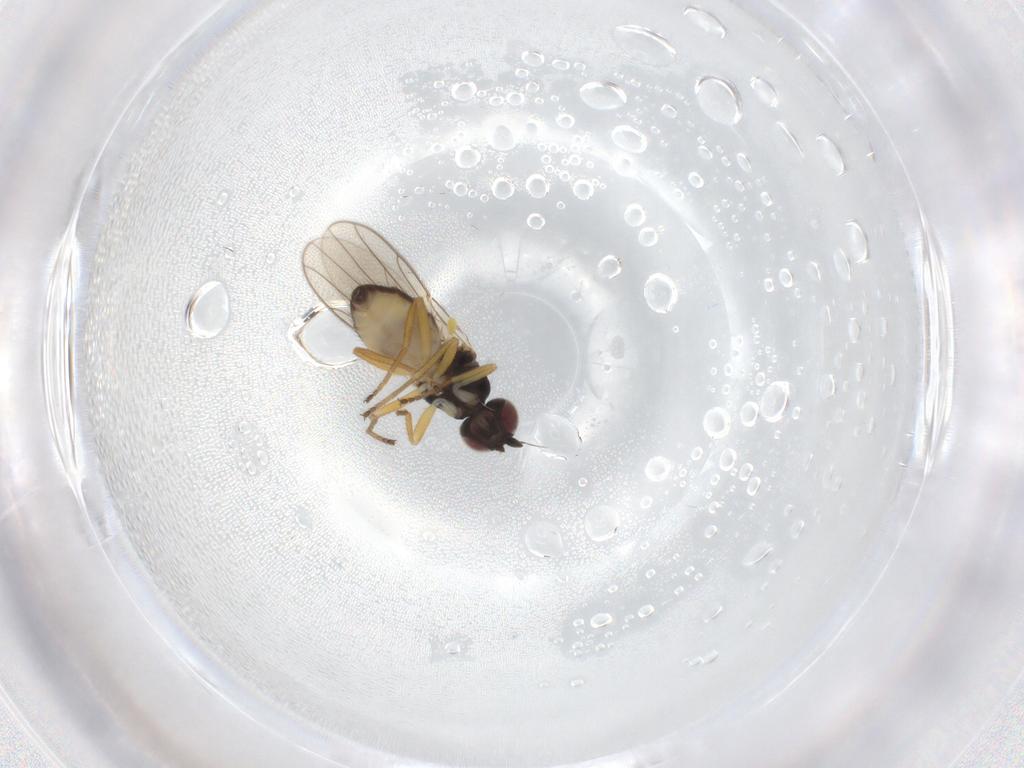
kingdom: Animalia
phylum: Arthropoda
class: Insecta
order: Diptera
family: Chloropidae
